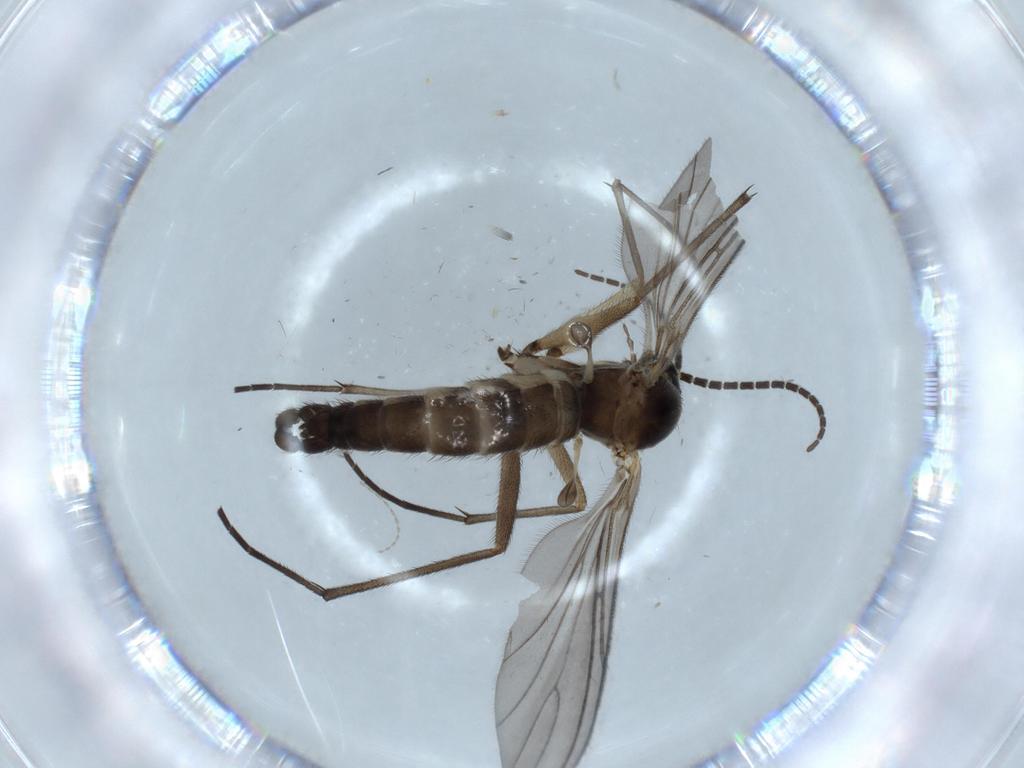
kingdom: Animalia
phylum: Arthropoda
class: Insecta
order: Diptera
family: Sciaridae
